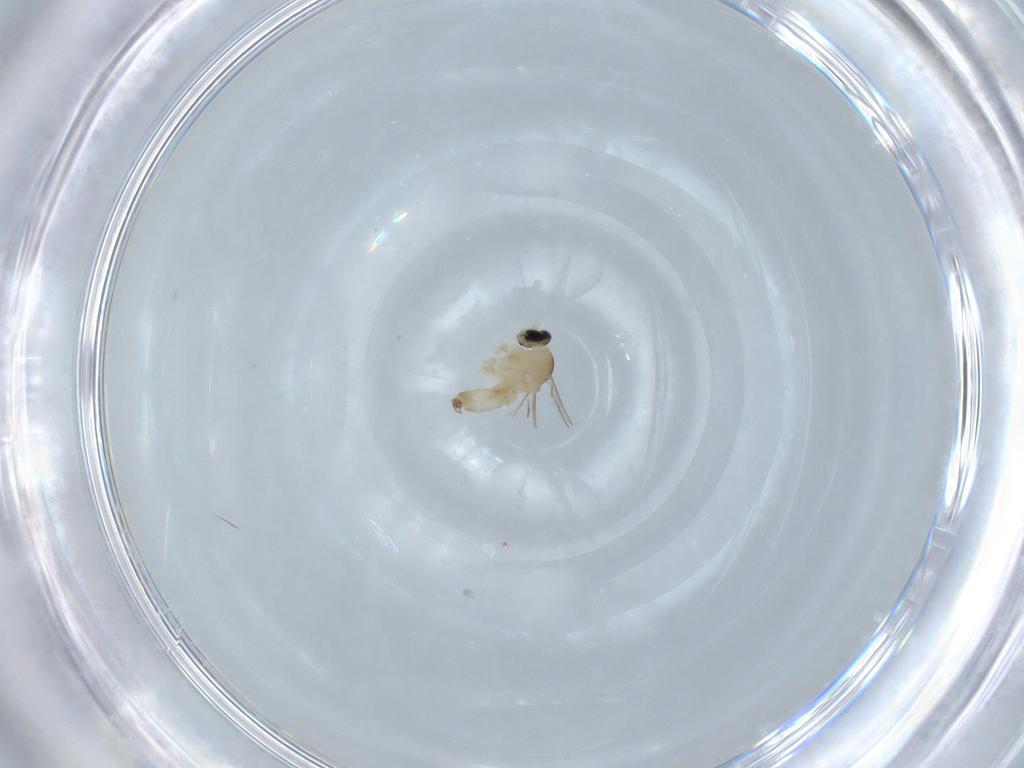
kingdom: Animalia
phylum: Arthropoda
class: Insecta
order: Diptera
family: Cecidomyiidae
